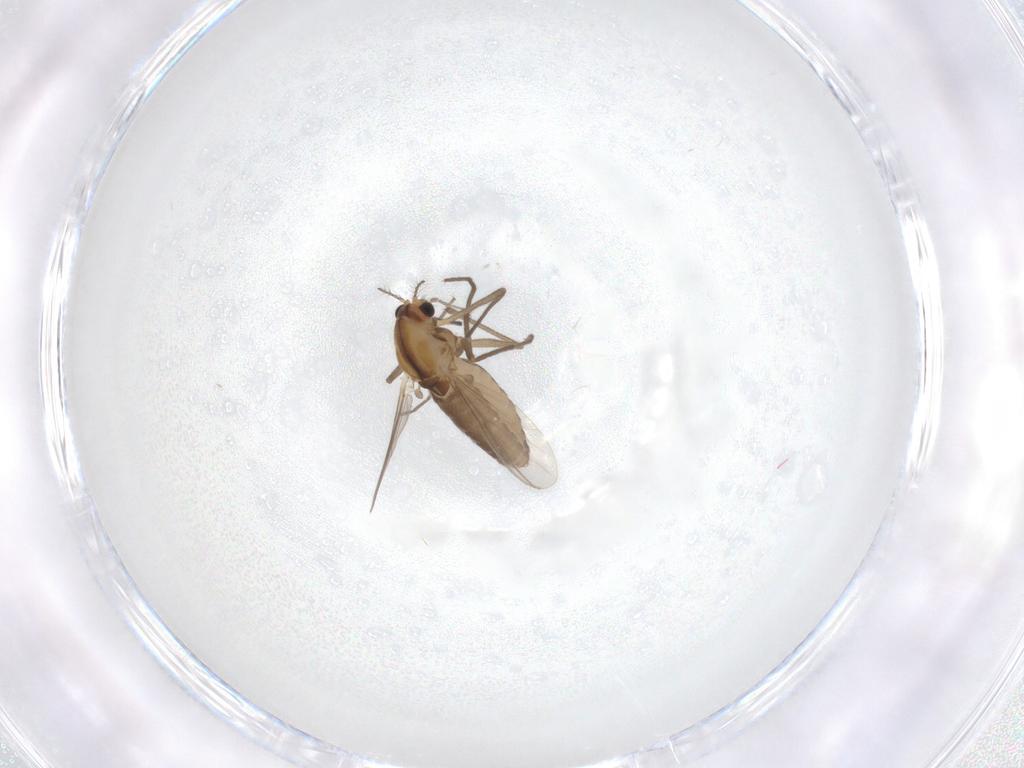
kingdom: Animalia
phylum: Arthropoda
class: Insecta
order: Diptera
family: Chironomidae
